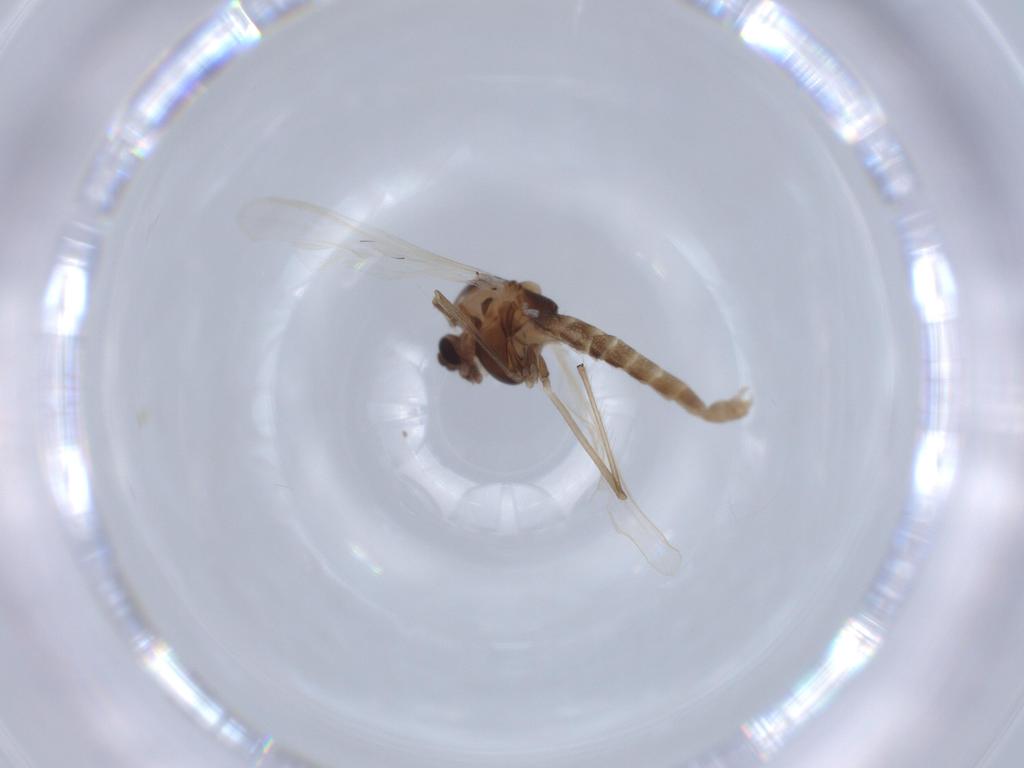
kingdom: Animalia
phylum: Arthropoda
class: Insecta
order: Diptera
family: Chironomidae
